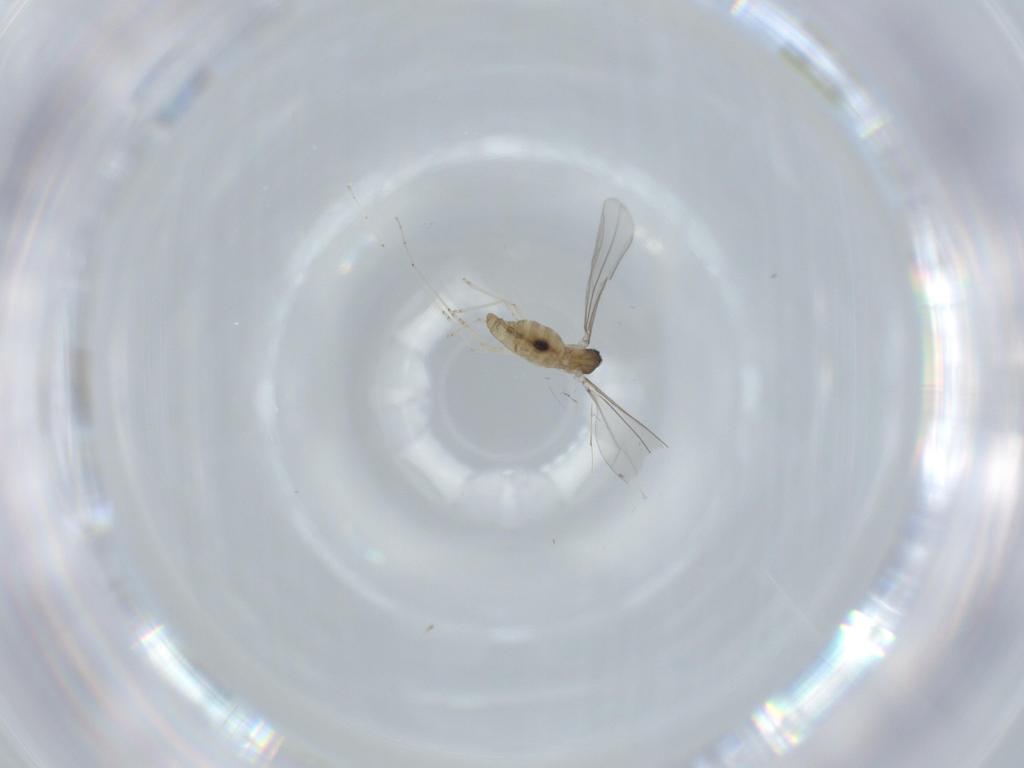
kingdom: Animalia
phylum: Arthropoda
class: Insecta
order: Diptera
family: Cecidomyiidae
